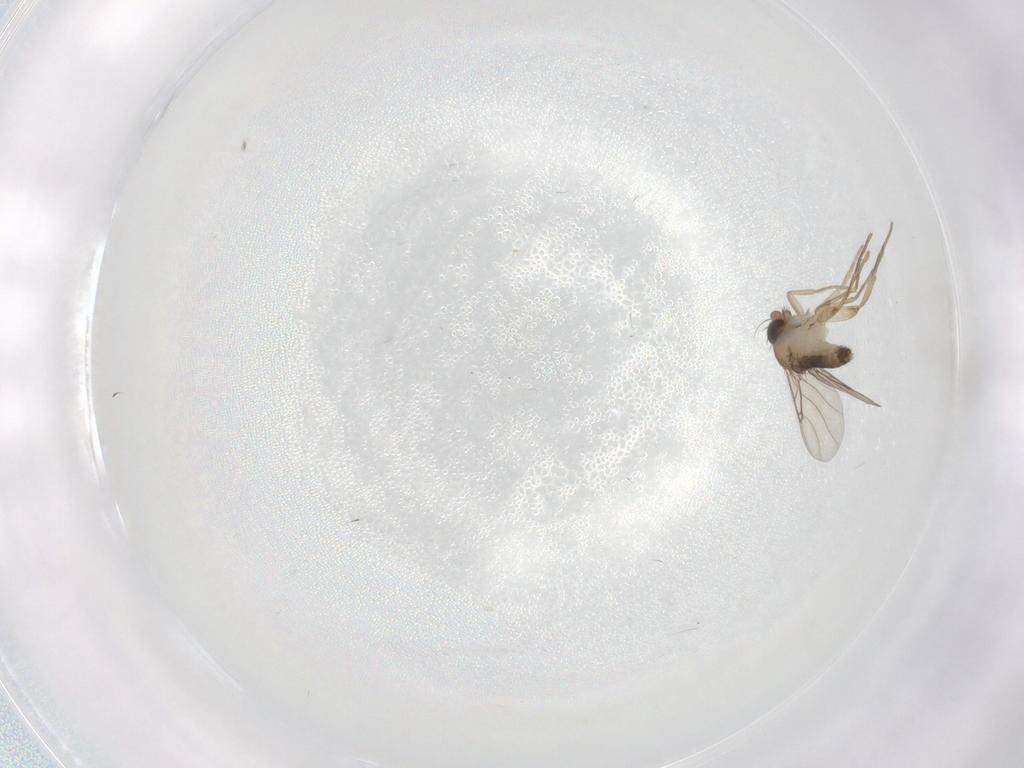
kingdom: Animalia
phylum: Arthropoda
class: Insecta
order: Diptera
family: Phoridae
